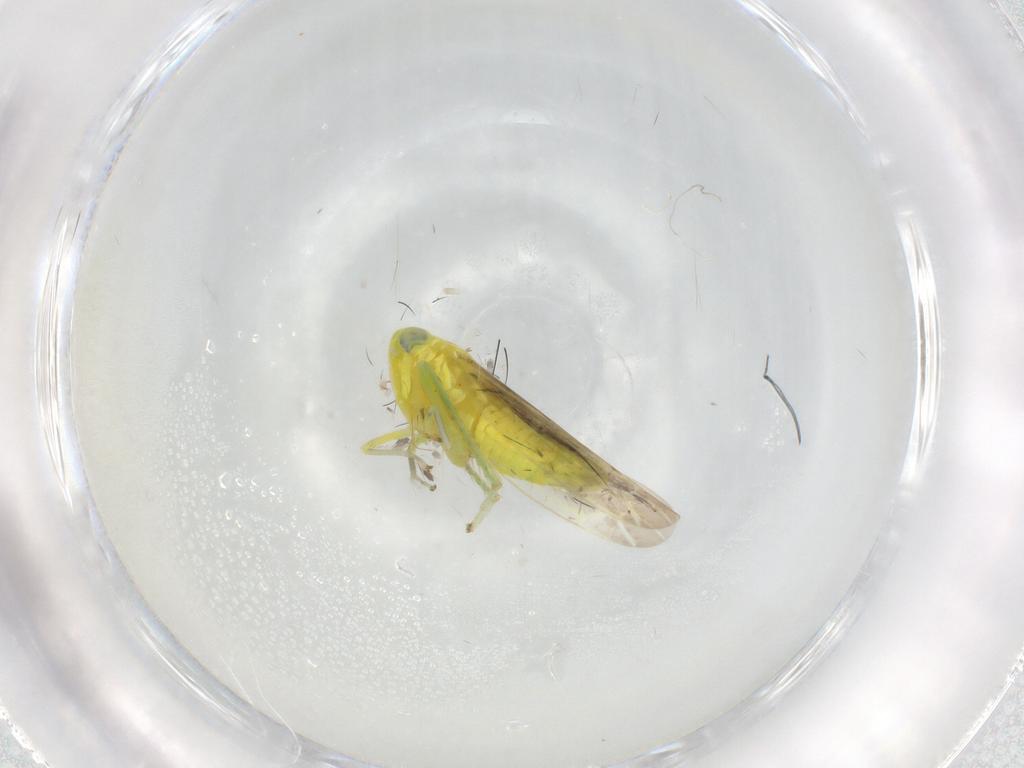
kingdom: Animalia
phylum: Arthropoda
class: Insecta
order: Hemiptera
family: Cicadellidae
